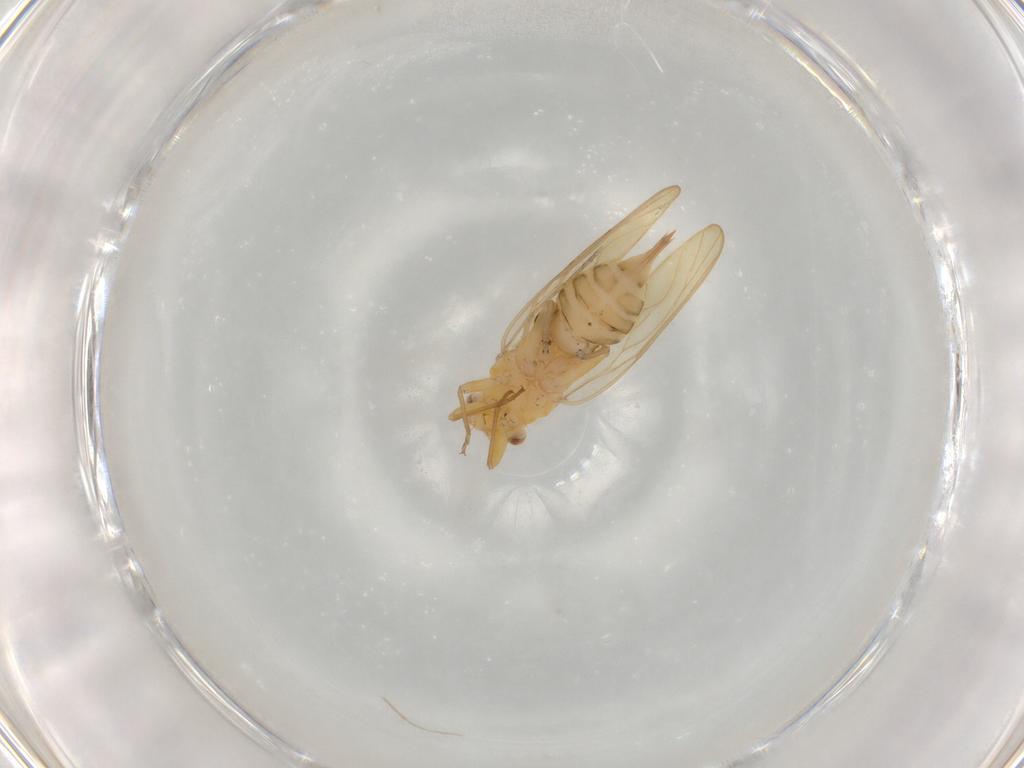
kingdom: Animalia
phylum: Arthropoda
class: Insecta
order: Hemiptera
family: Psyllidae
